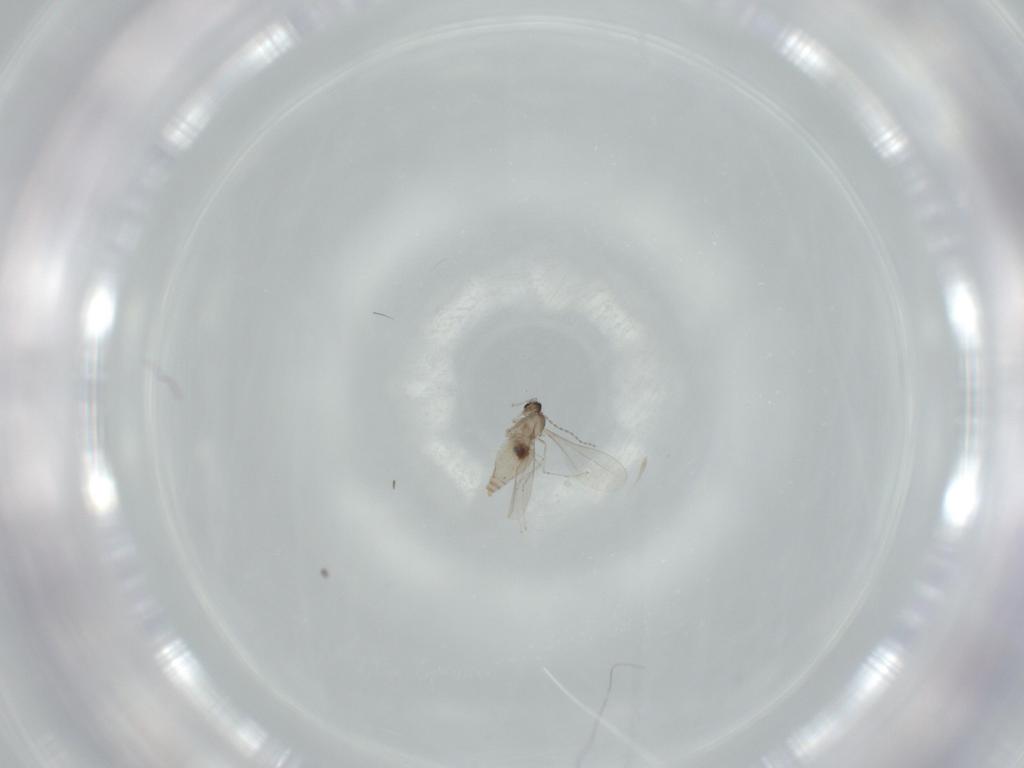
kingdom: Animalia
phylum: Arthropoda
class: Insecta
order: Diptera
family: Cecidomyiidae
